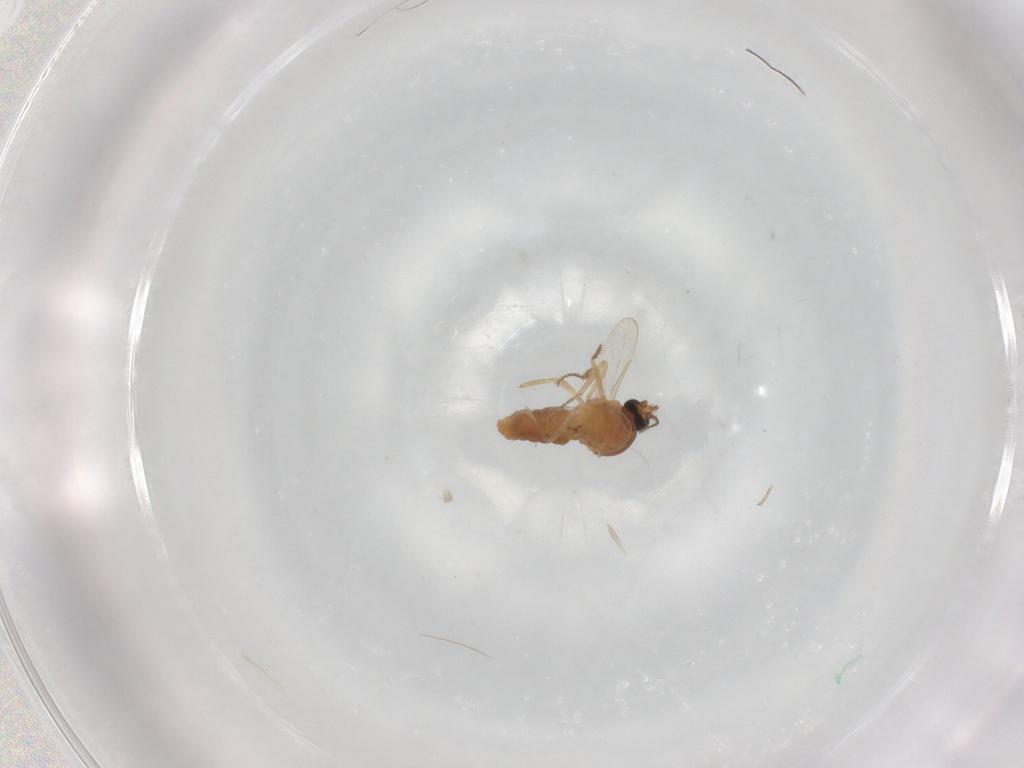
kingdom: Animalia
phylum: Arthropoda
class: Insecta
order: Diptera
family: Ceratopogonidae
